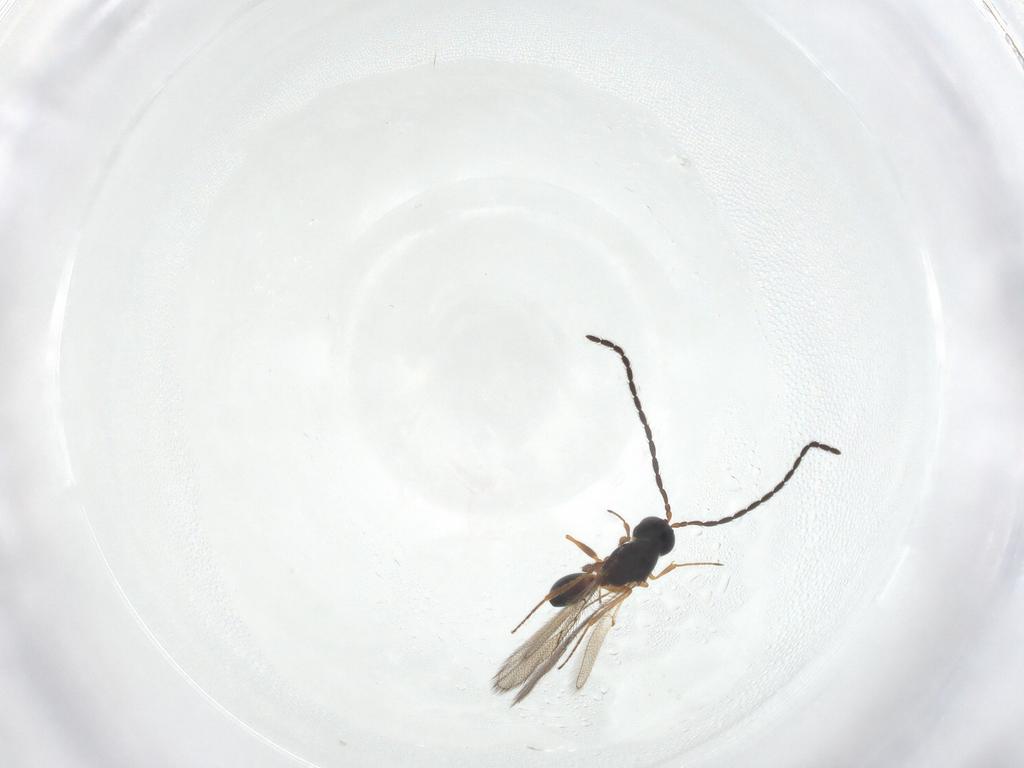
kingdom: Animalia
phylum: Arthropoda
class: Insecta
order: Hymenoptera
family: Figitidae
